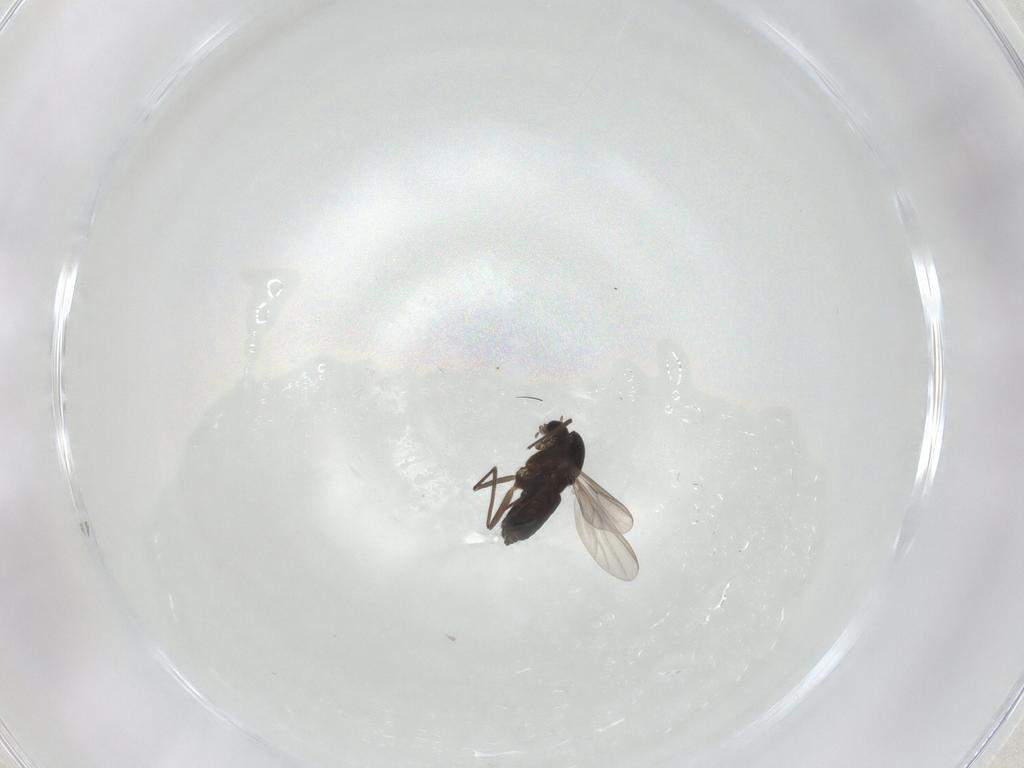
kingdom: Animalia
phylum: Arthropoda
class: Insecta
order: Diptera
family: Chironomidae
